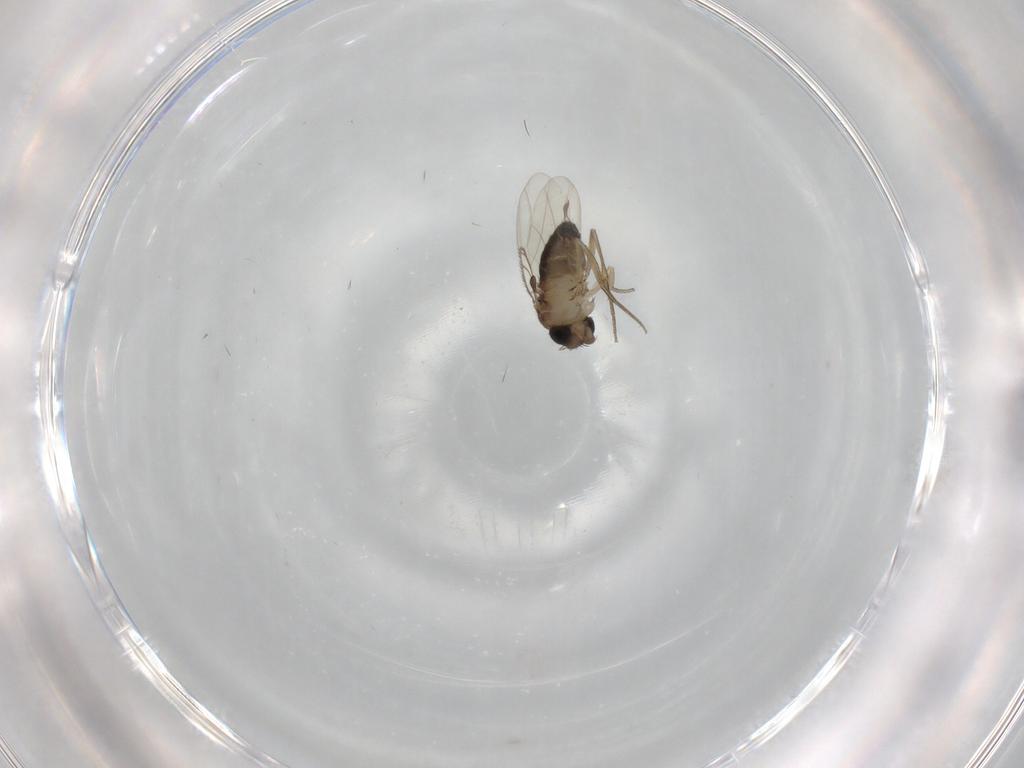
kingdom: Animalia
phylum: Arthropoda
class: Insecta
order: Diptera
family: Cecidomyiidae
